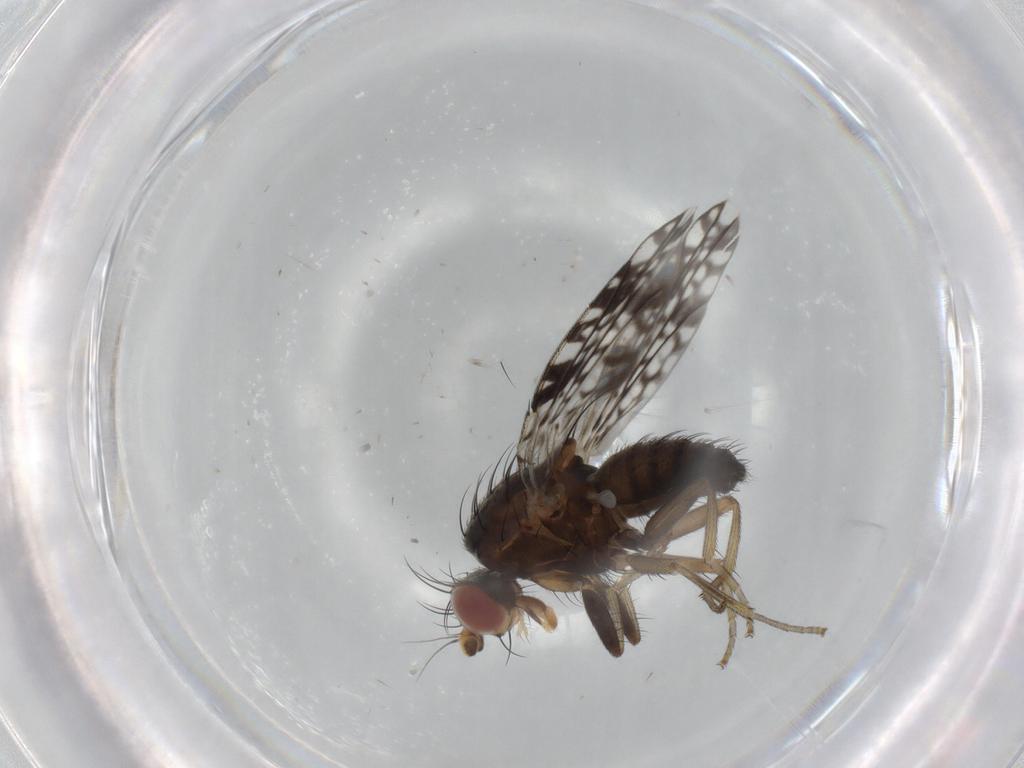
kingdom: Animalia
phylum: Arthropoda
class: Insecta
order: Diptera
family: Tephritidae
